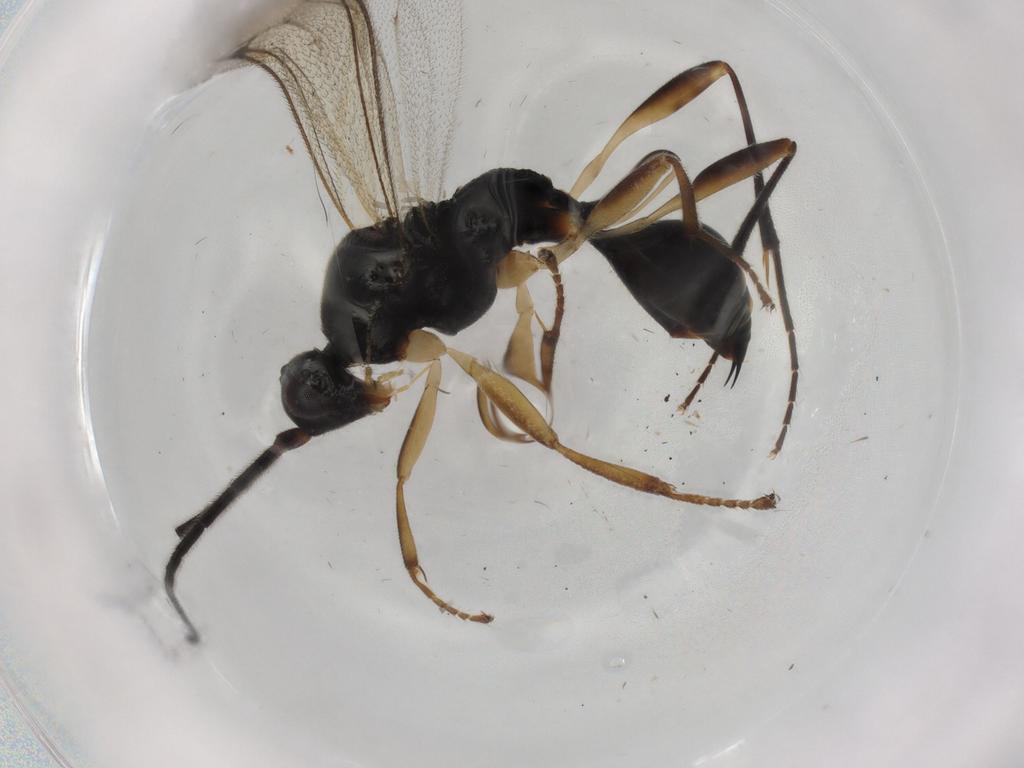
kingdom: Animalia
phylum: Arthropoda
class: Insecta
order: Hymenoptera
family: Proctotrupidae
